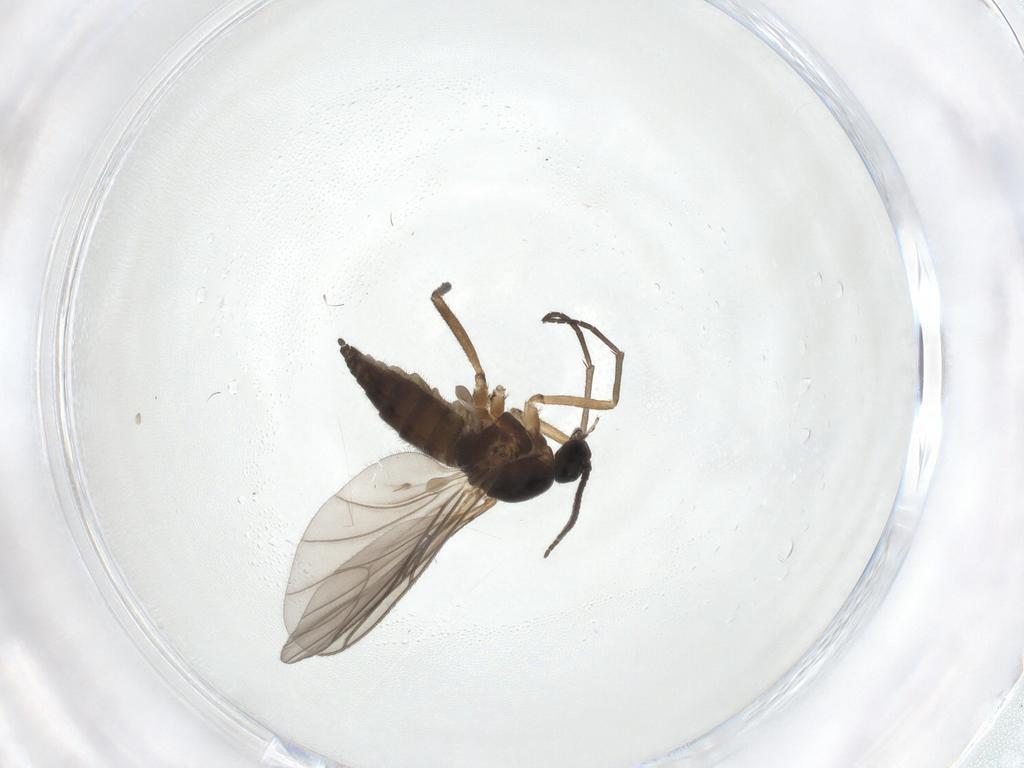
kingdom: Animalia
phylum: Arthropoda
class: Insecta
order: Diptera
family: Sciaridae
